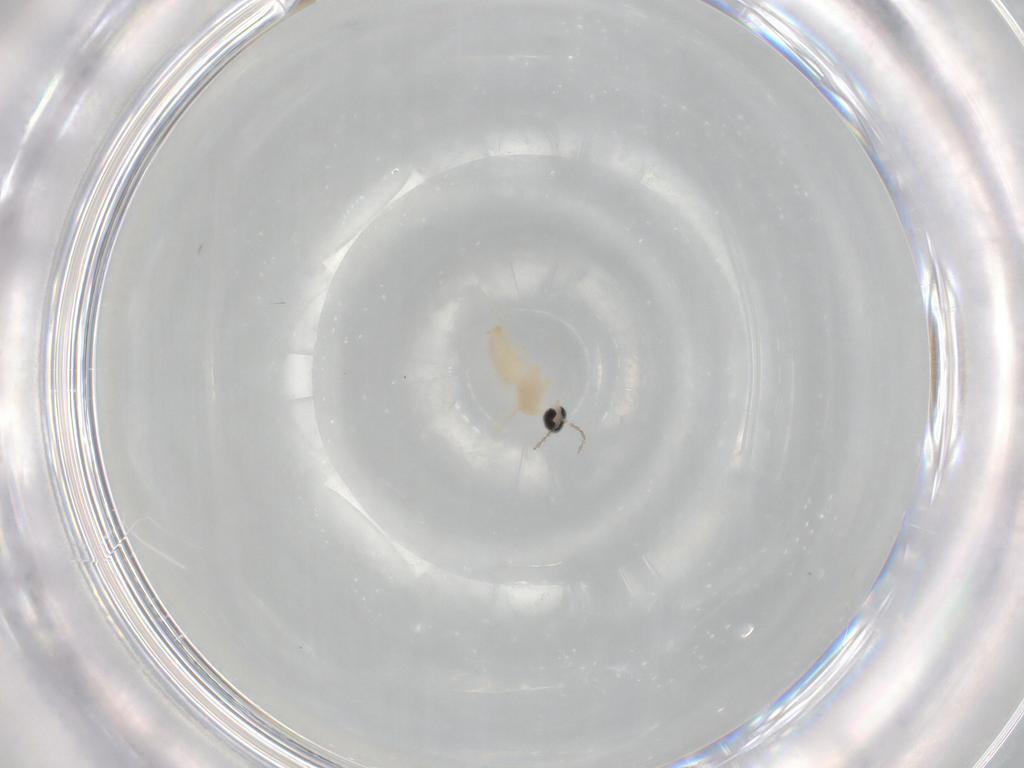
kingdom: Animalia
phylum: Arthropoda
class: Insecta
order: Diptera
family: Cecidomyiidae
